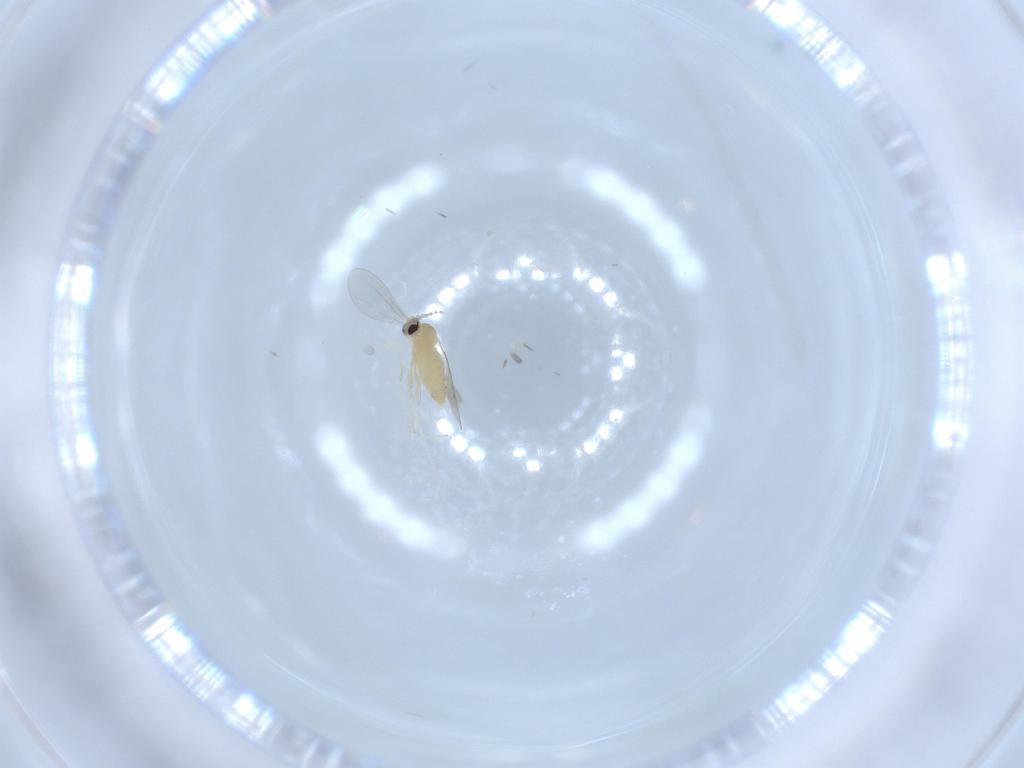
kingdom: Animalia
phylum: Arthropoda
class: Insecta
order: Diptera
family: Cecidomyiidae
